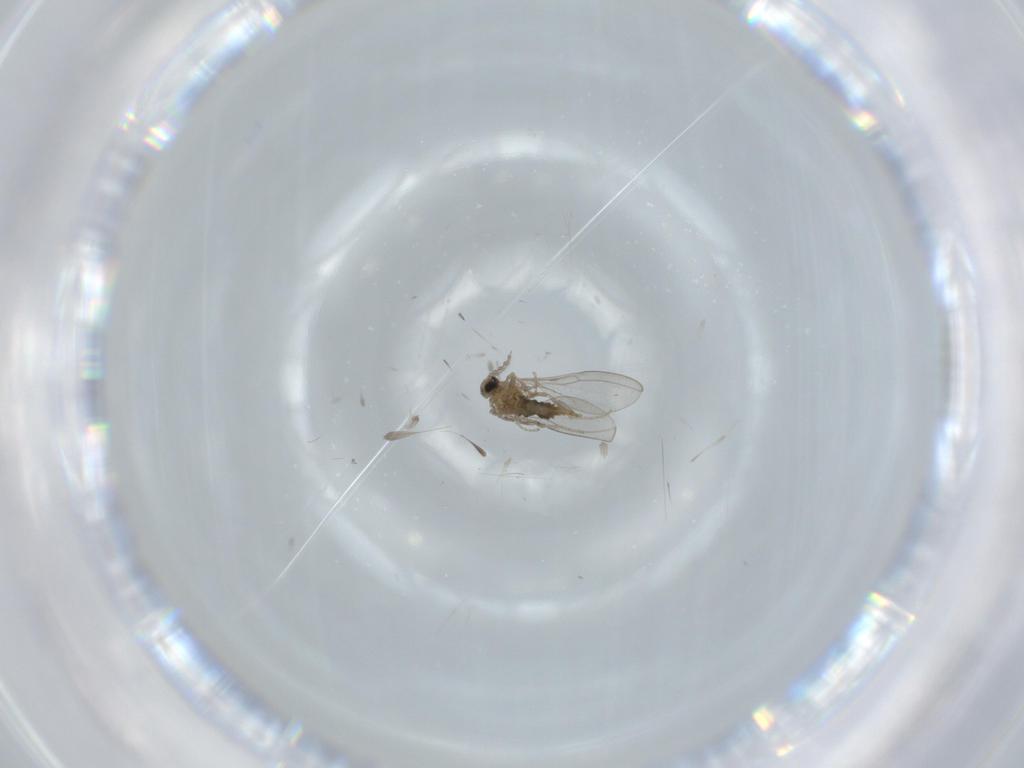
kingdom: Animalia
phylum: Arthropoda
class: Insecta
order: Diptera
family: Cecidomyiidae
